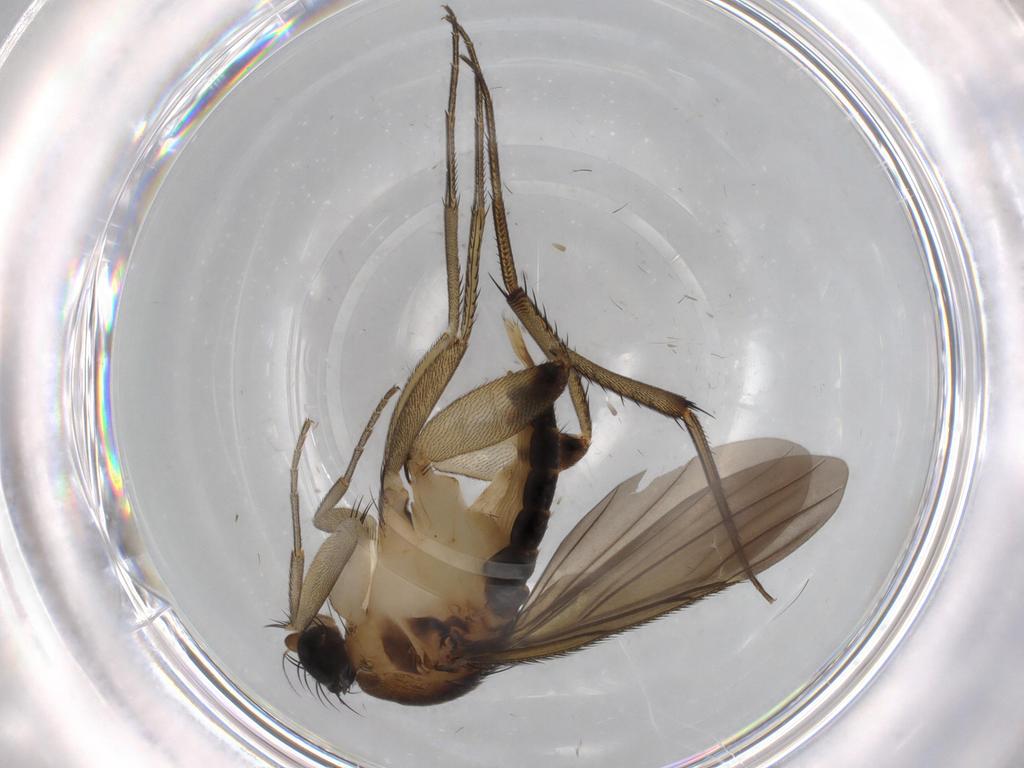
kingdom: Animalia
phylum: Arthropoda
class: Insecta
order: Diptera
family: Phoridae
